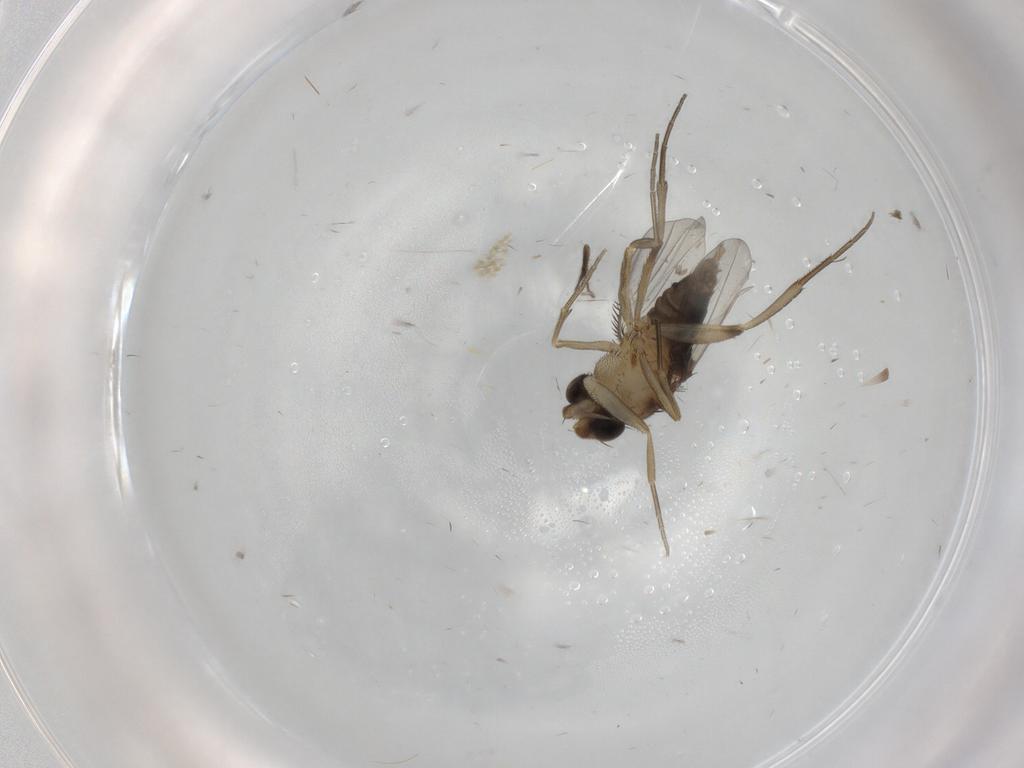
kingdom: Animalia
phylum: Arthropoda
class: Insecta
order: Diptera
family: Phoridae
